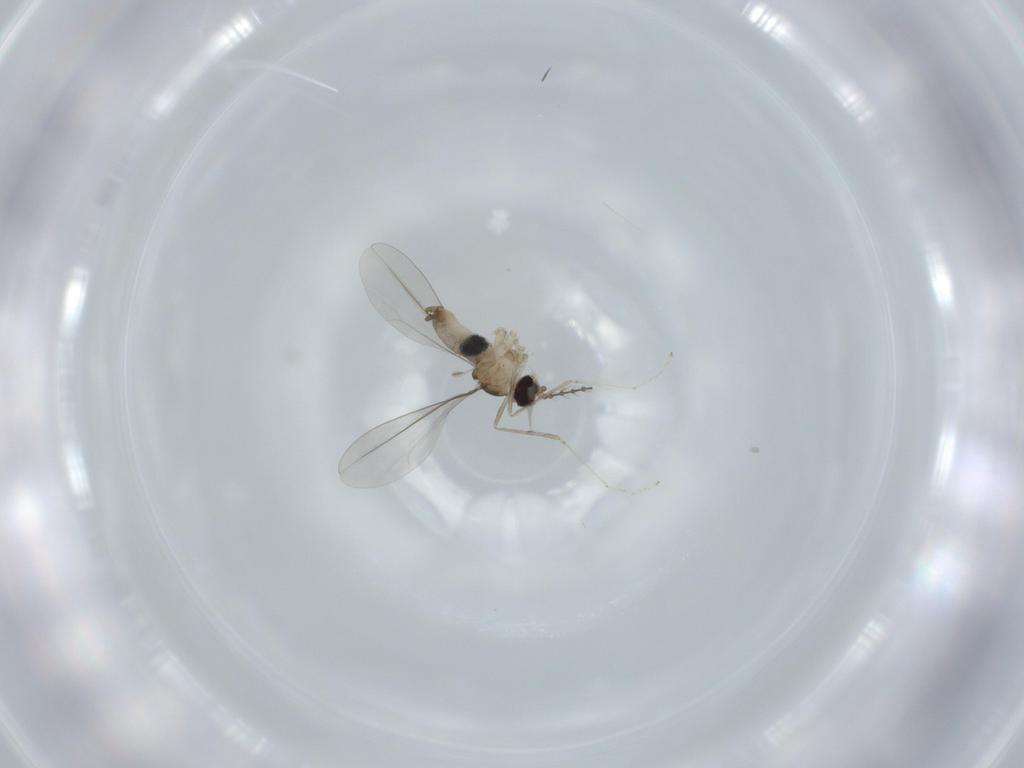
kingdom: Animalia
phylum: Arthropoda
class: Insecta
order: Diptera
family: Cecidomyiidae
